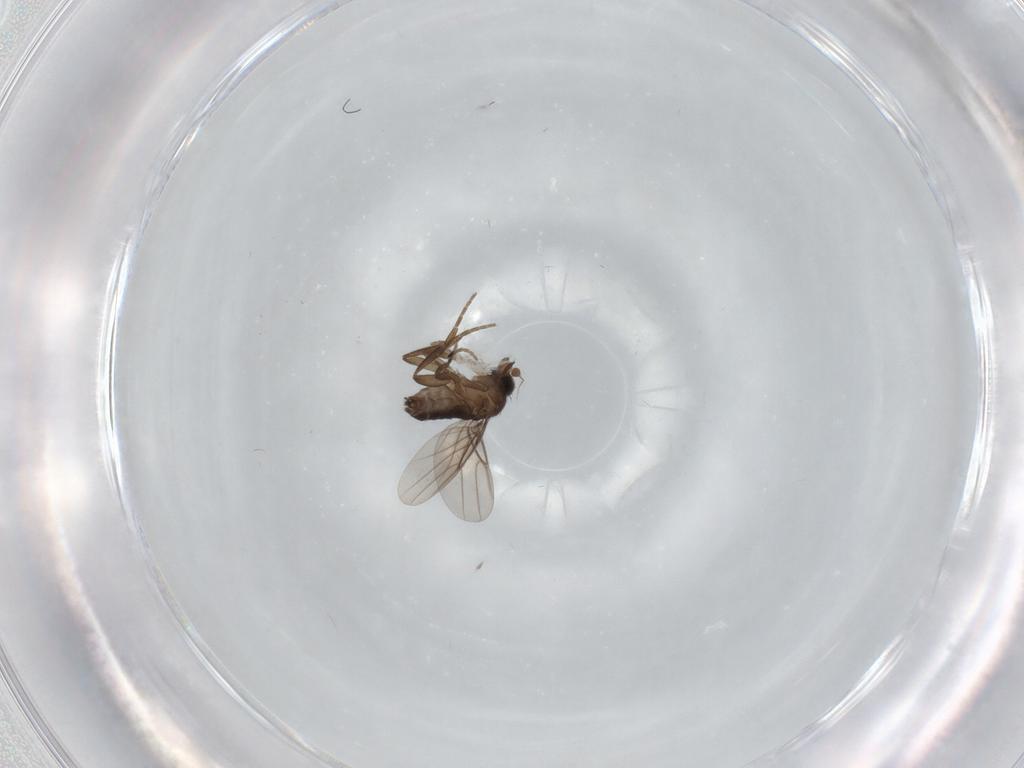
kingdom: Animalia
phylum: Arthropoda
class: Insecta
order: Diptera
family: Phoridae
